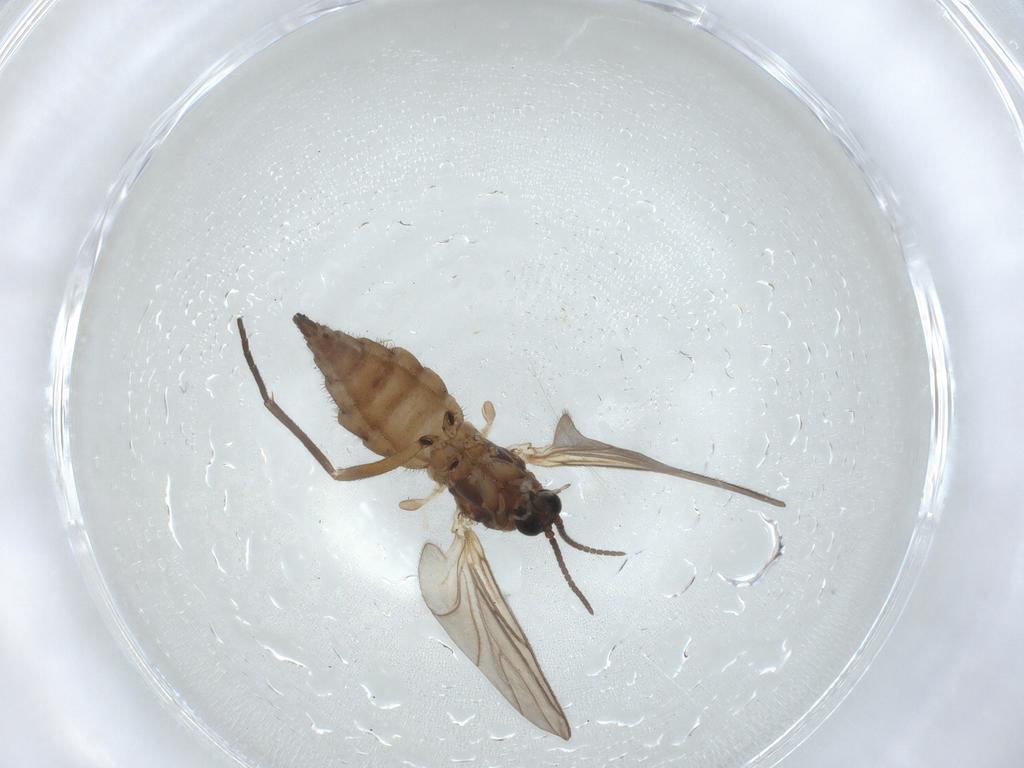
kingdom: Animalia
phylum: Arthropoda
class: Insecta
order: Diptera
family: Sciaridae
